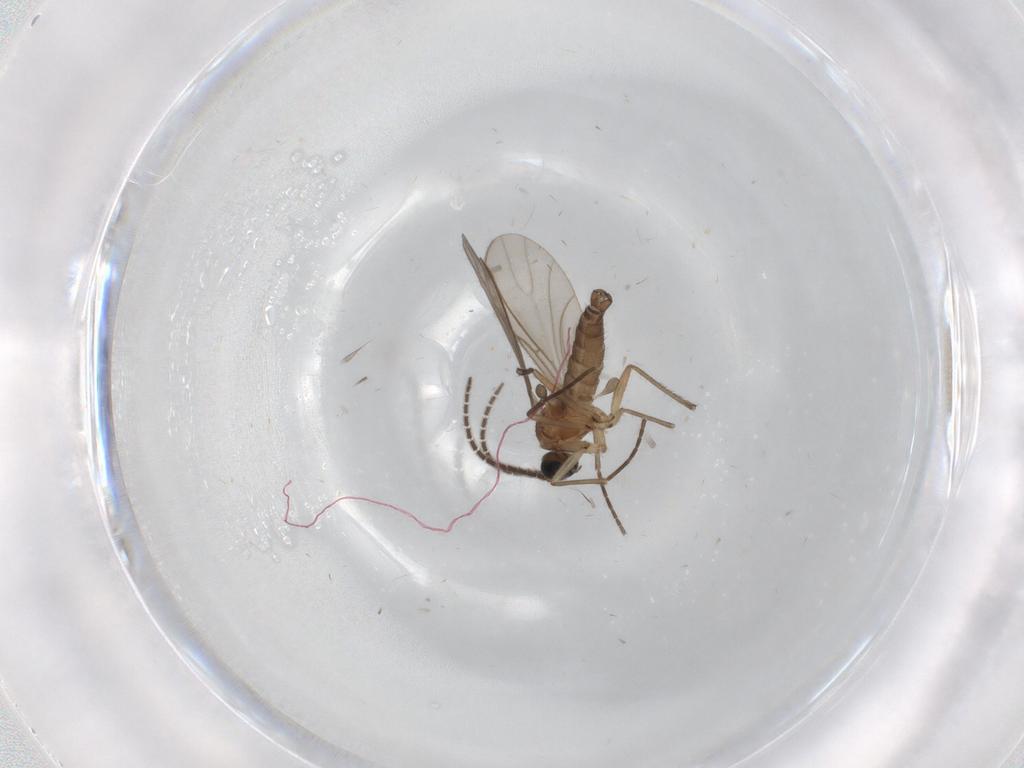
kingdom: Animalia
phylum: Arthropoda
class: Insecta
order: Diptera
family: Sciaridae
